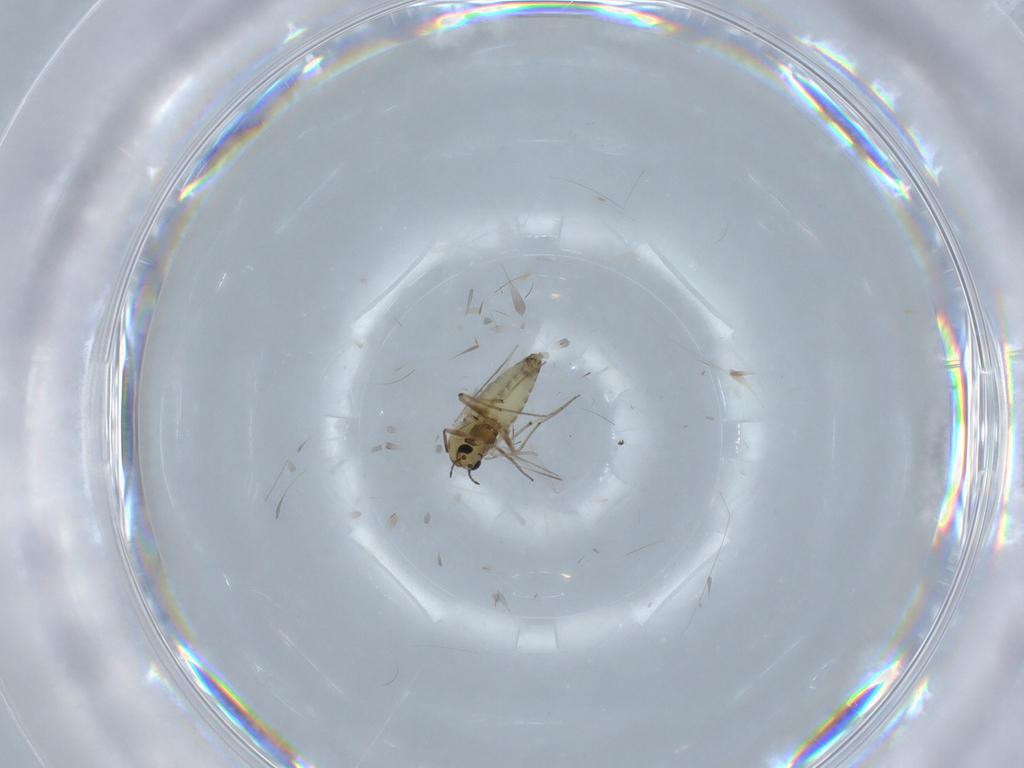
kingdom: Animalia
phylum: Arthropoda
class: Insecta
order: Diptera
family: Chironomidae
